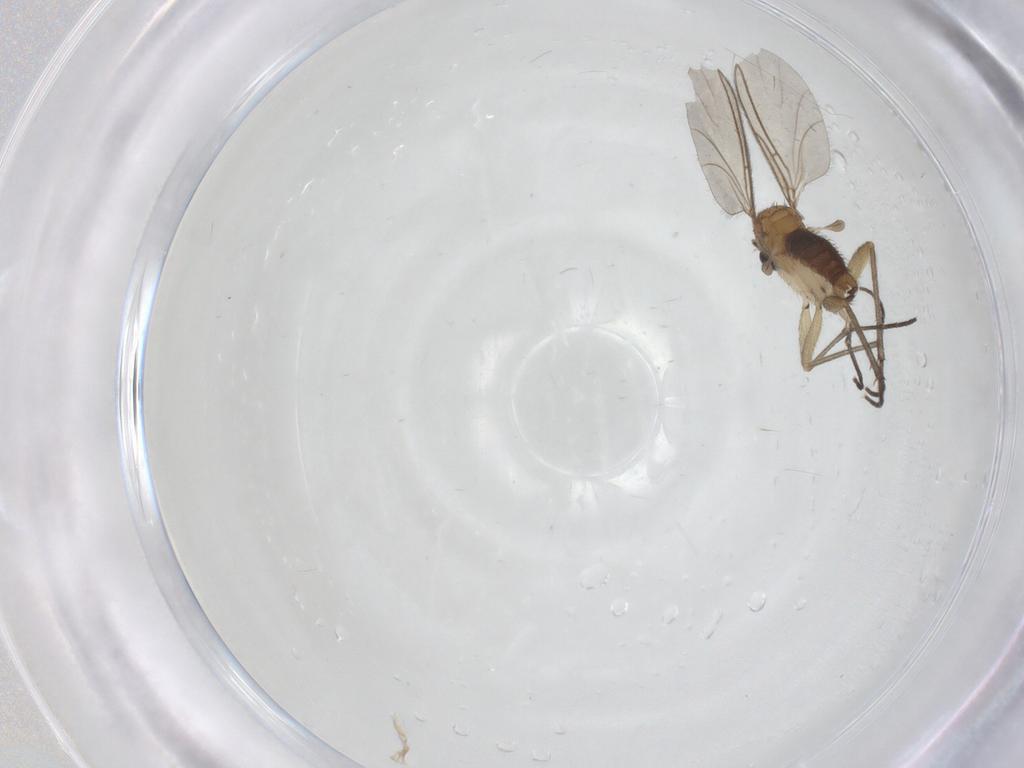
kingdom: Animalia
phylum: Arthropoda
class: Insecta
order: Diptera
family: Sciaridae
